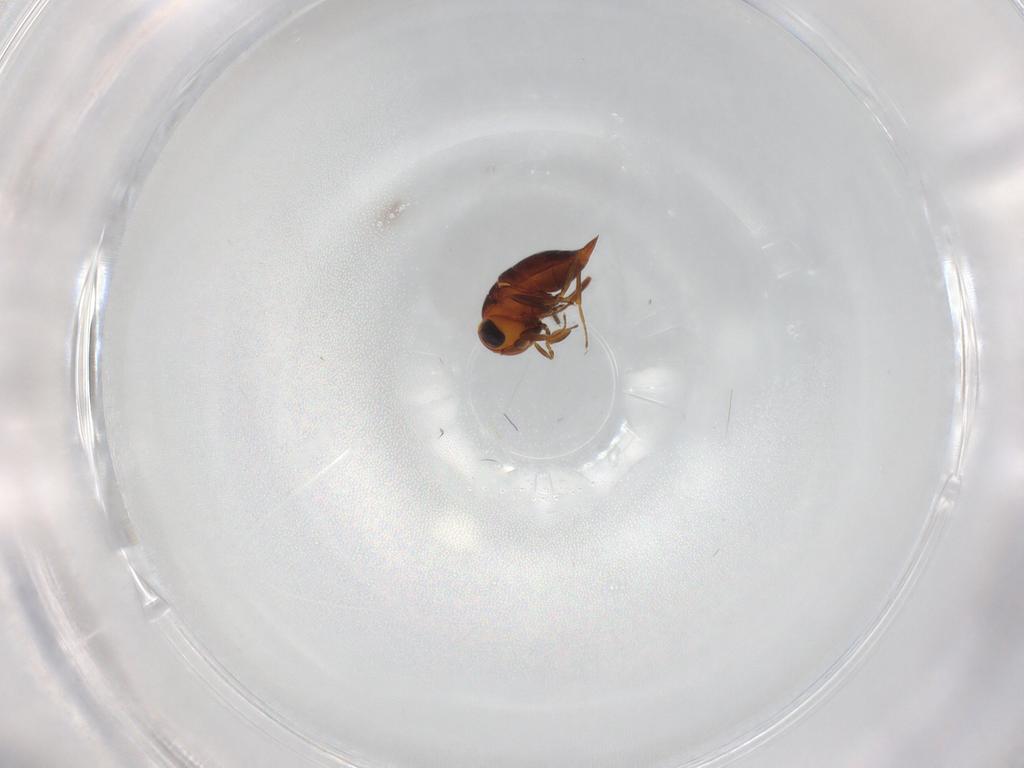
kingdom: Animalia
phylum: Arthropoda
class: Insecta
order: Hymenoptera
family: Scelionidae
